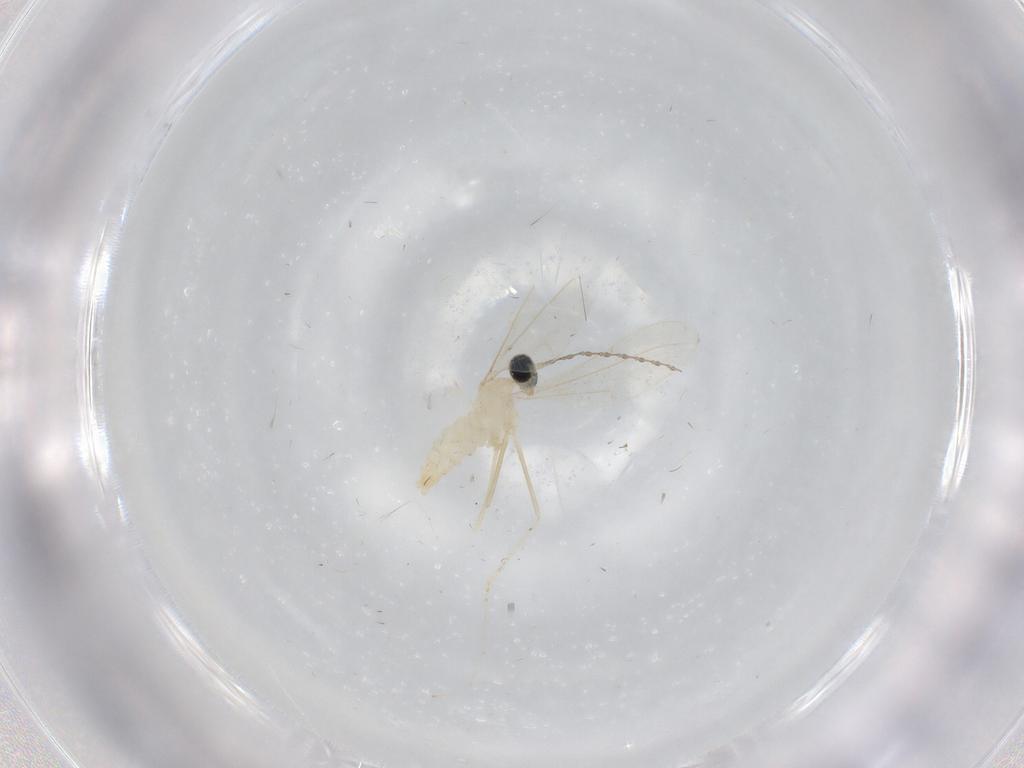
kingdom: Animalia
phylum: Arthropoda
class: Insecta
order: Diptera
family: Cecidomyiidae
